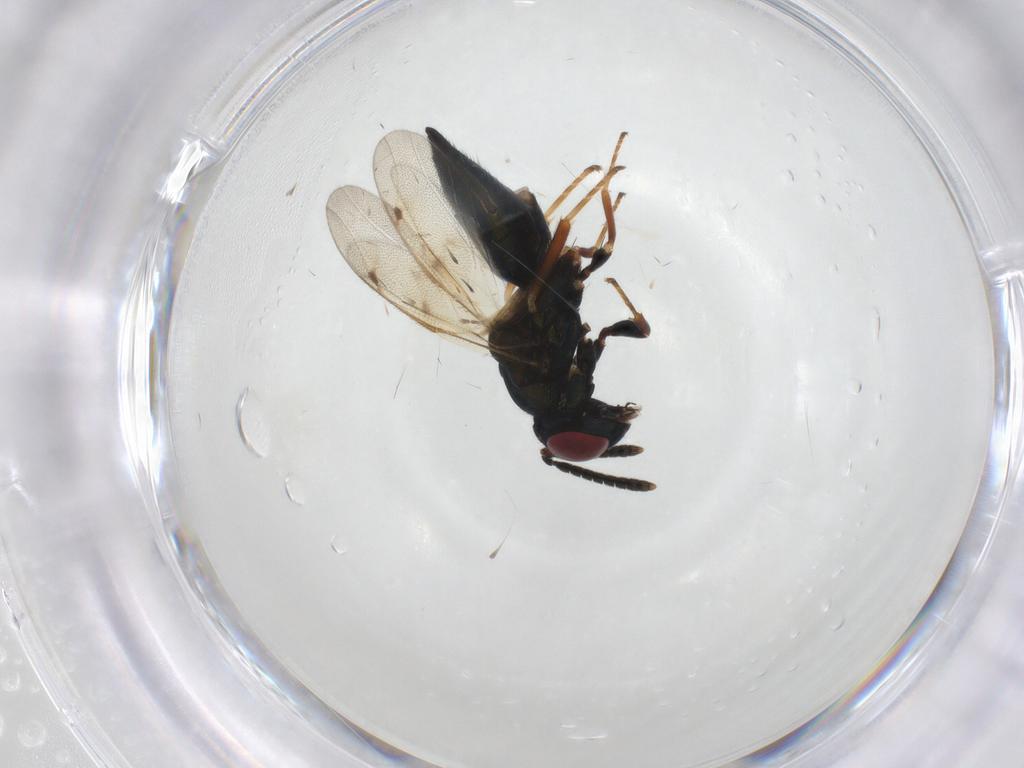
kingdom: Animalia
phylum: Arthropoda
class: Insecta
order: Hymenoptera
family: Pteromalidae
